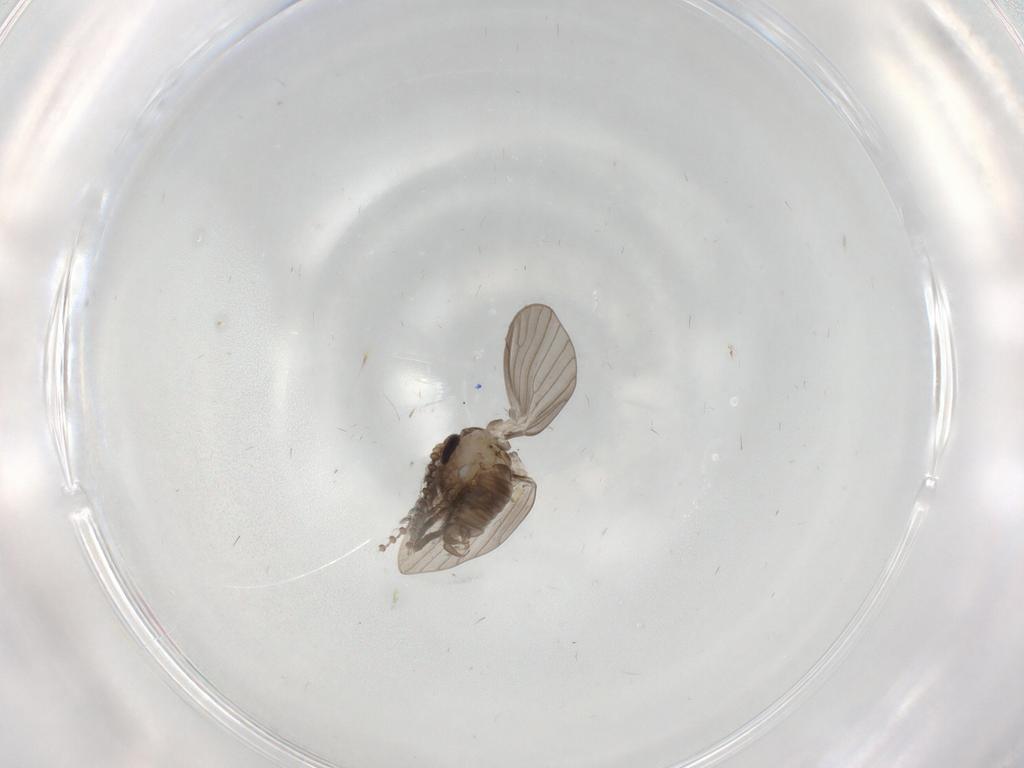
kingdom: Animalia
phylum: Arthropoda
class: Insecta
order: Diptera
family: Psychodidae
